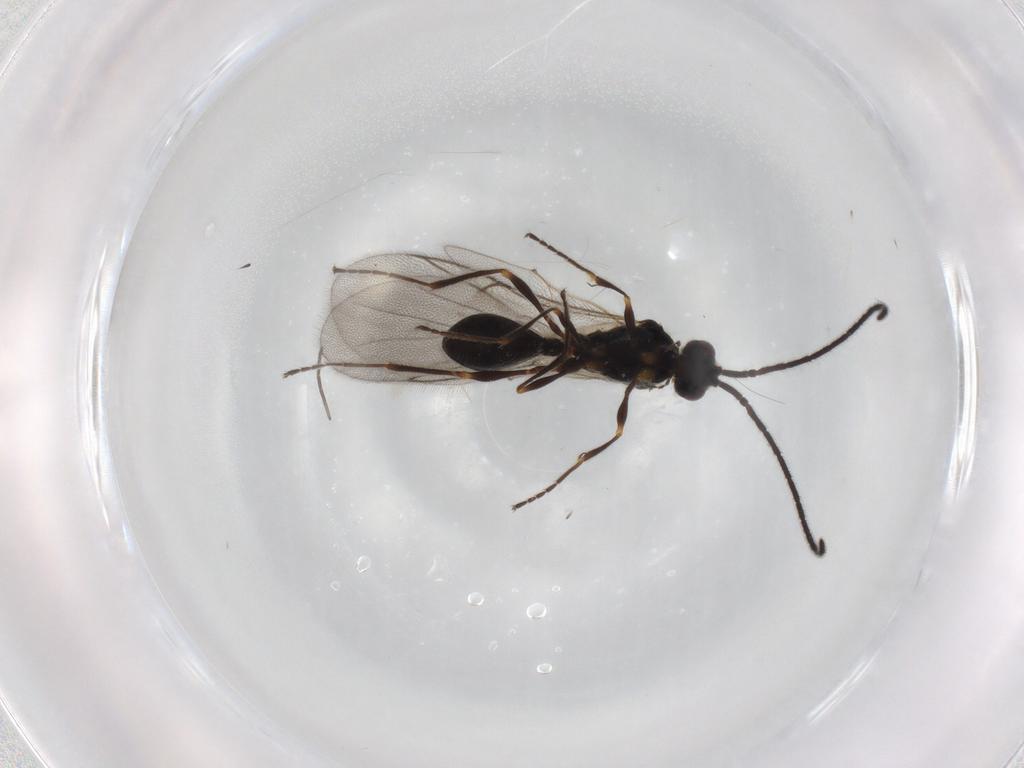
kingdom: Animalia
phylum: Arthropoda
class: Insecta
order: Hymenoptera
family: Diapriidae
